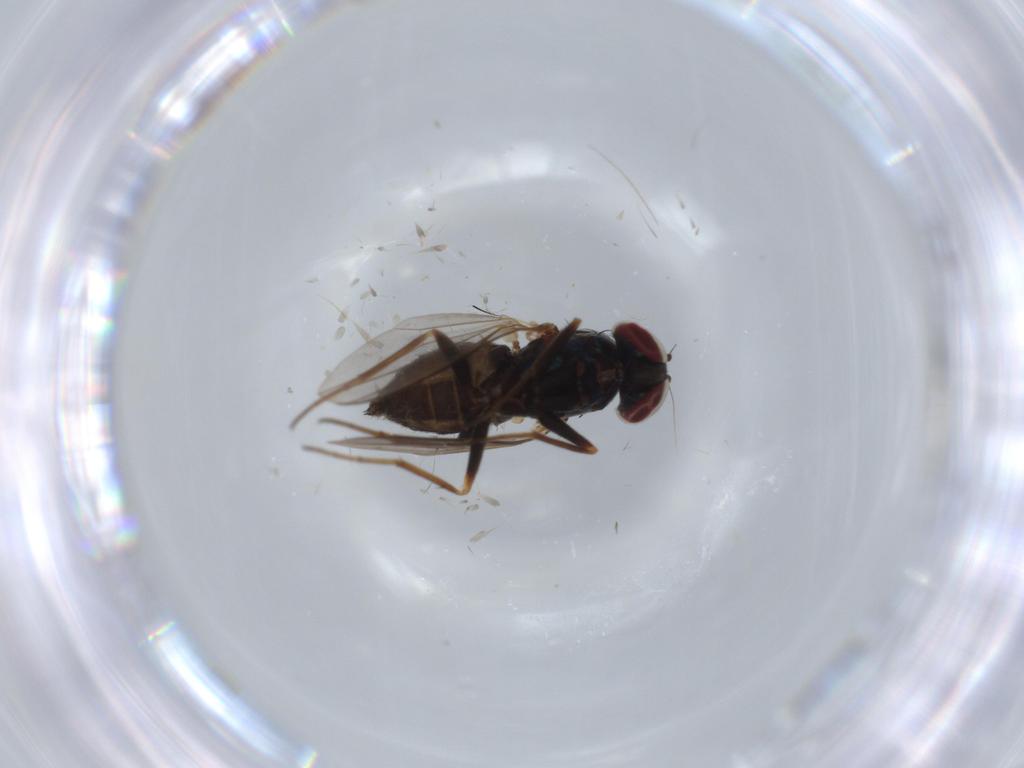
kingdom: Animalia
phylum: Arthropoda
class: Insecta
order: Diptera
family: Dolichopodidae
